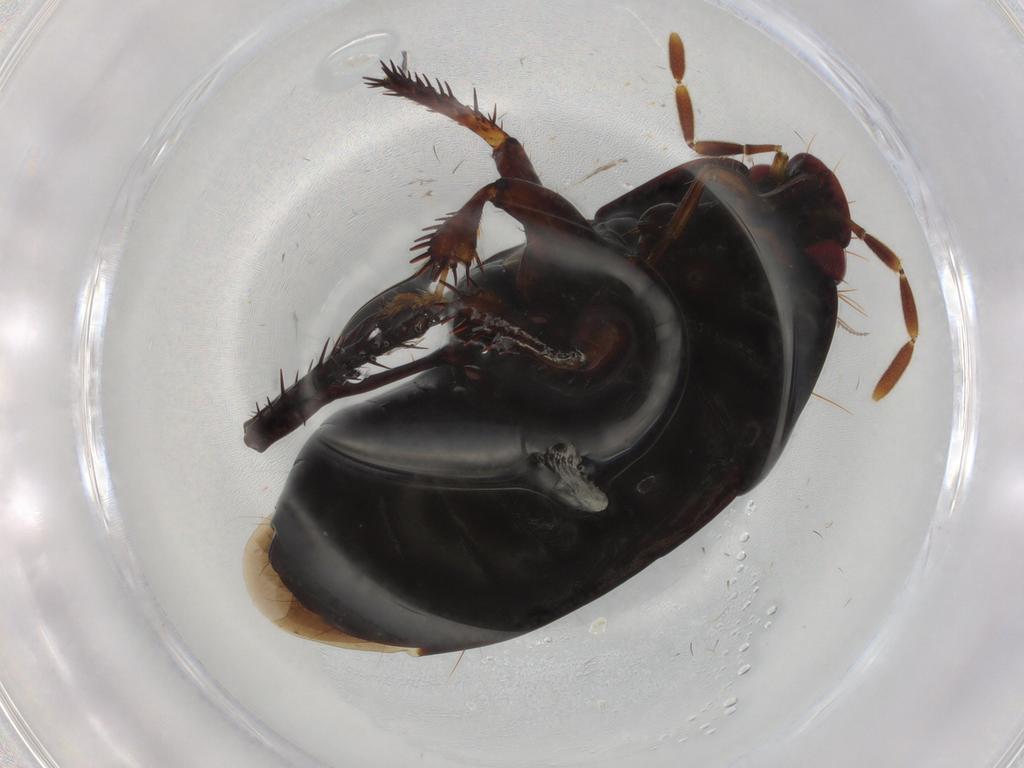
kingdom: Animalia
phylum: Arthropoda
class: Insecta
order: Hemiptera
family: Cydnidae
